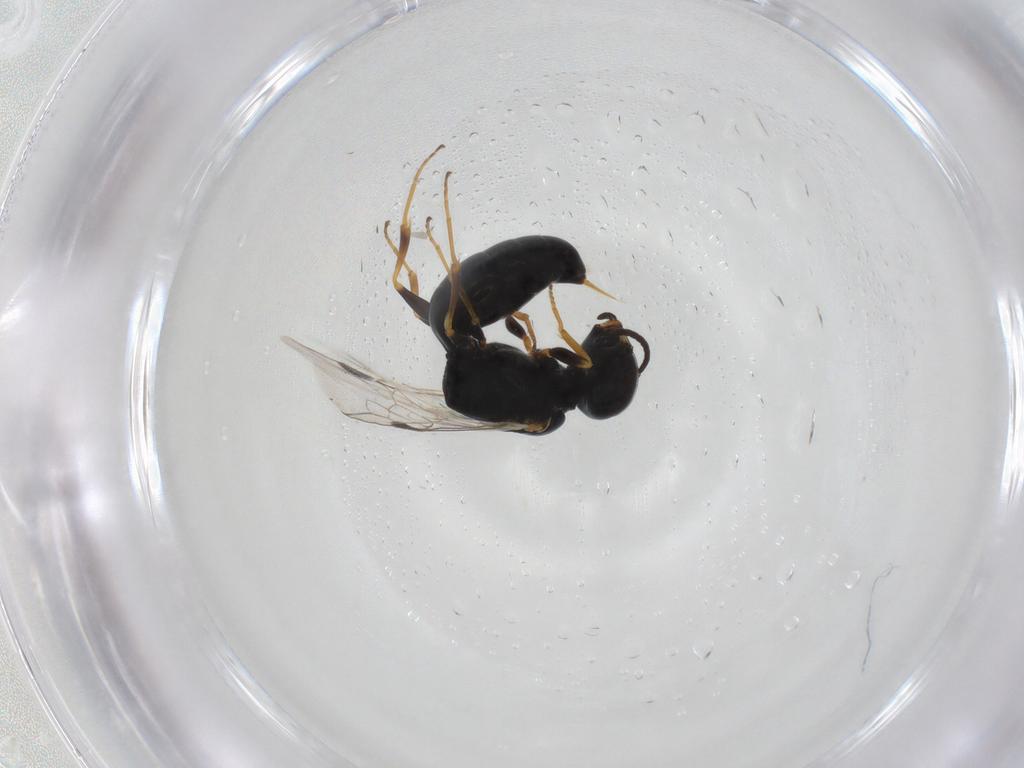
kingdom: Animalia
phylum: Arthropoda
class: Insecta
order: Hymenoptera
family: Crabronidae
